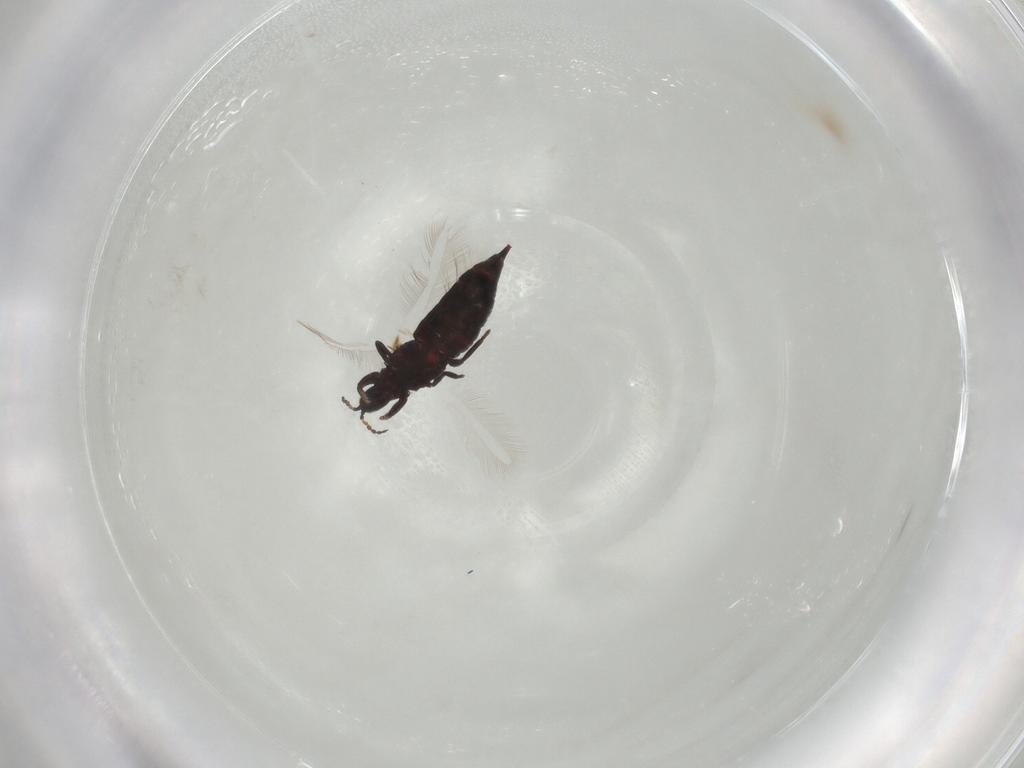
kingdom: Animalia
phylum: Arthropoda
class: Insecta
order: Thysanoptera
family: Phlaeothripidae
